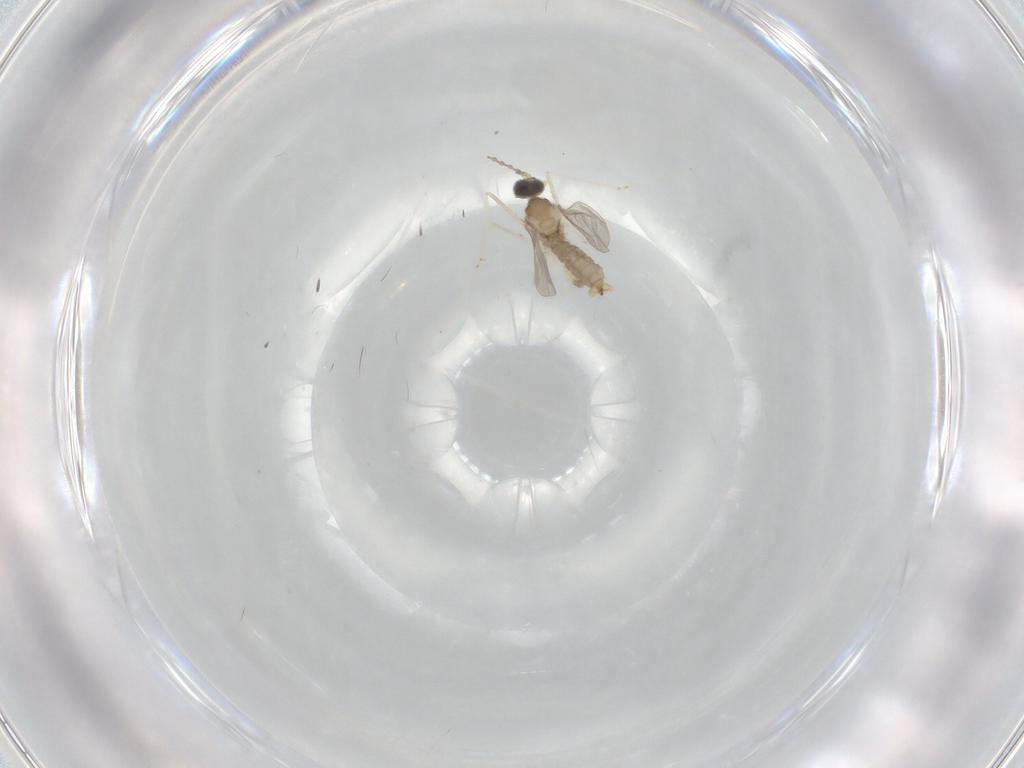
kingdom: Animalia
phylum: Arthropoda
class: Insecta
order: Diptera
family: Cecidomyiidae
